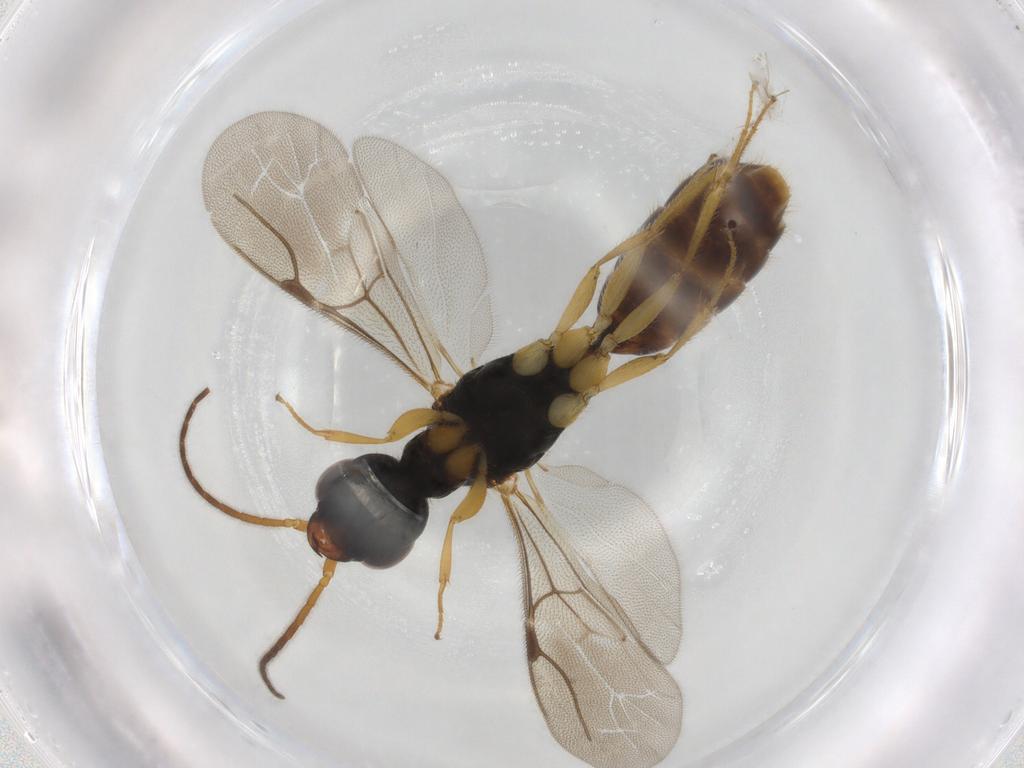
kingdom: Animalia
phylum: Arthropoda
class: Insecta
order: Hymenoptera
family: Bethylidae
